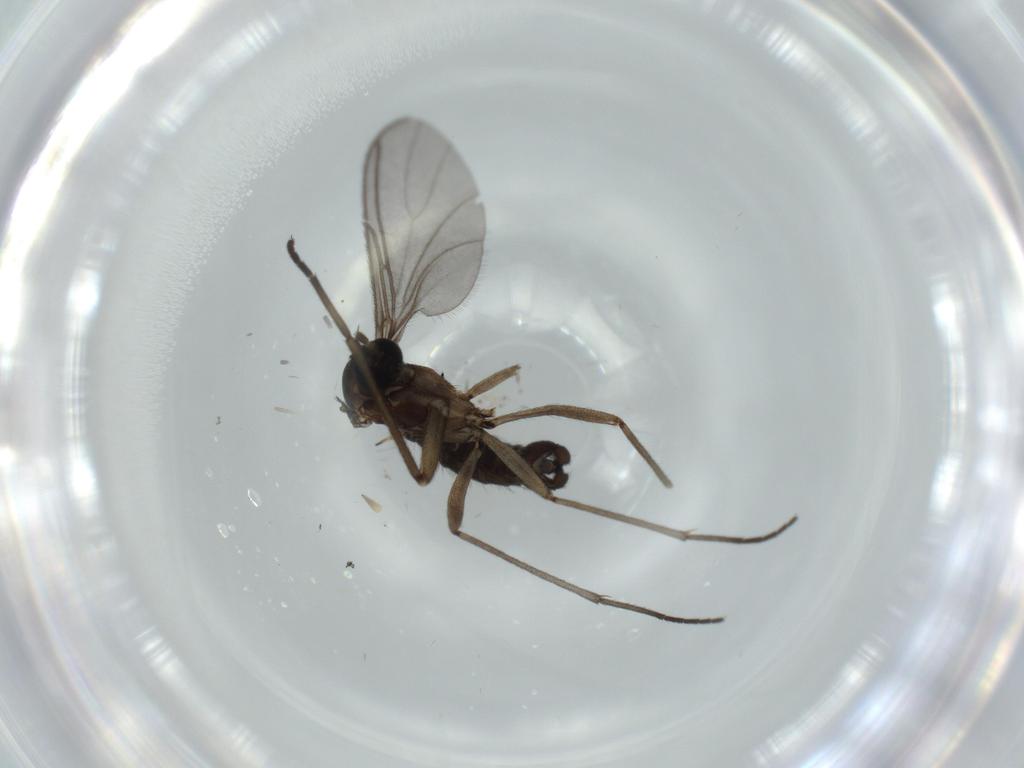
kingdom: Animalia
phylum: Arthropoda
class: Insecta
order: Diptera
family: Sciaridae
